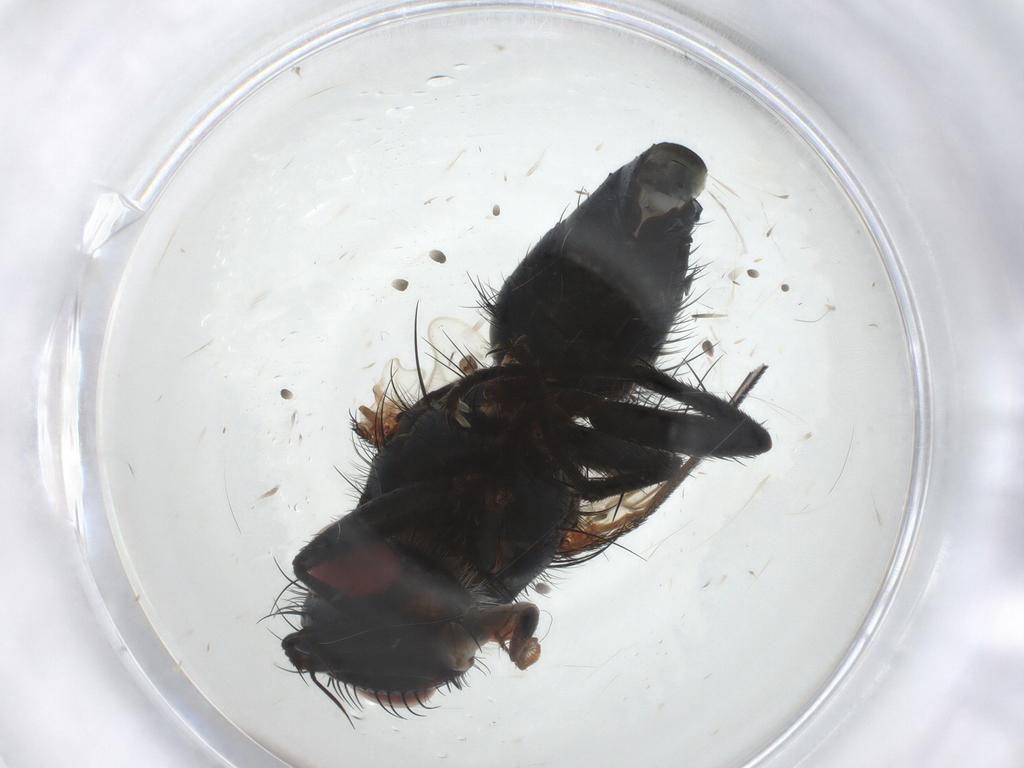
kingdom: Animalia
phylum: Arthropoda
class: Insecta
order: Diptera
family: Tachinidae
